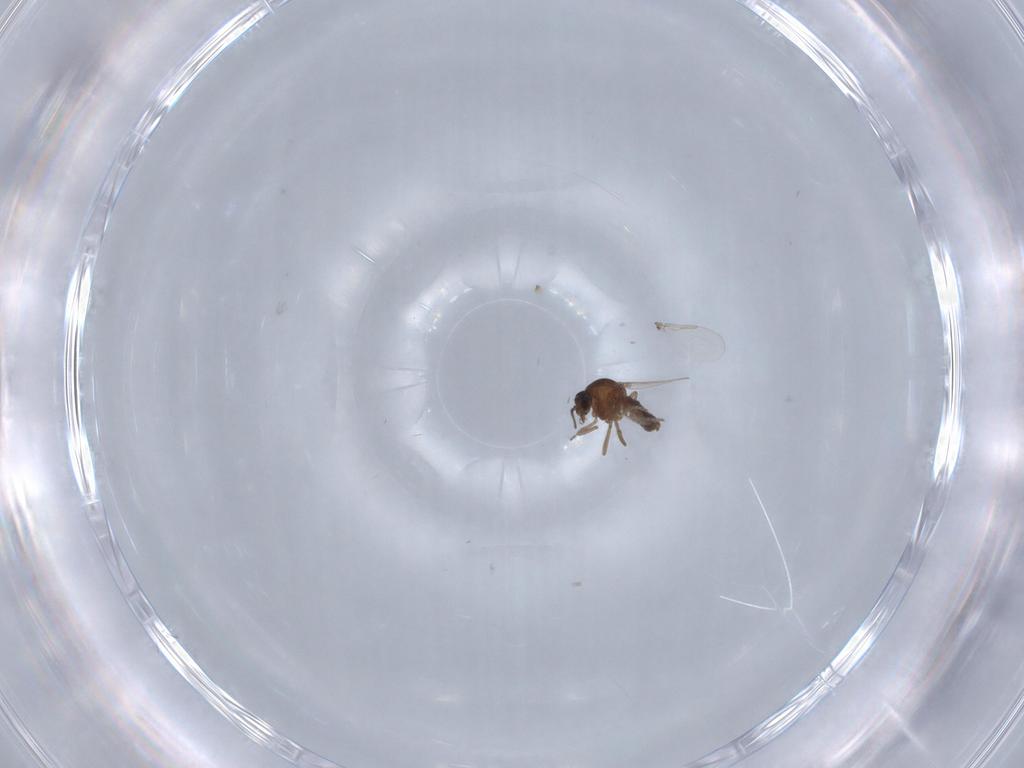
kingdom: Animalia
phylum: Arthropoda
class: Insecta
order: Diptera
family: Ceratopogonidae
